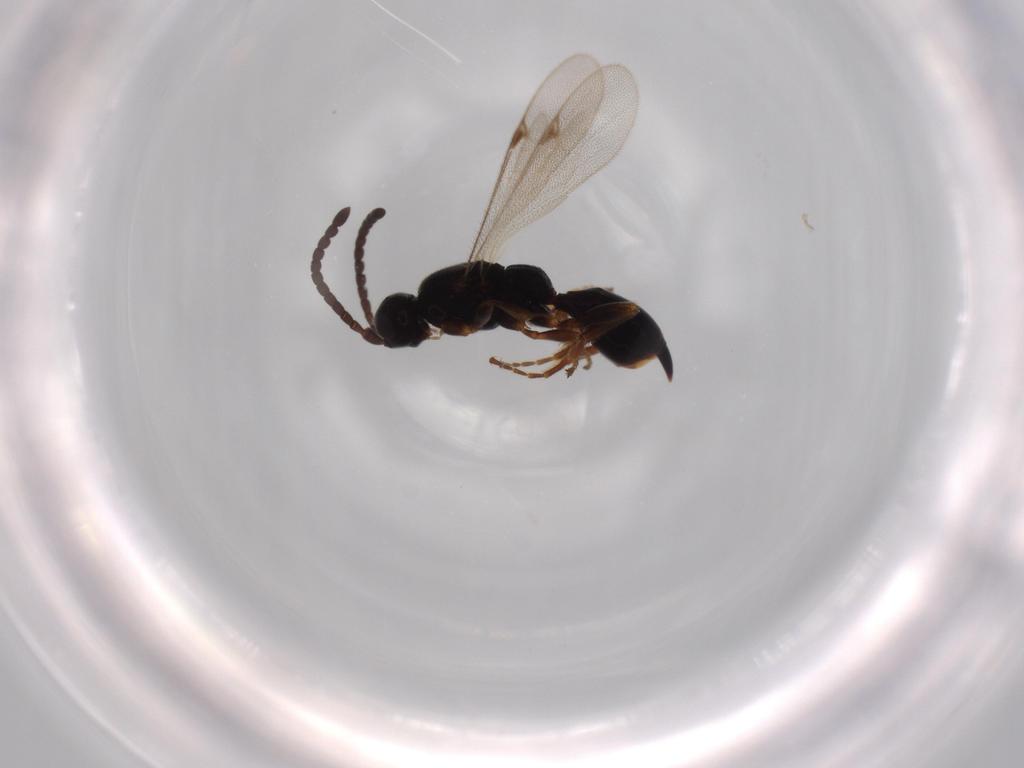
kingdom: Animalia
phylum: Arthropoda
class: Insecta
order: Hymenoptera
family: Proctotrupidae
